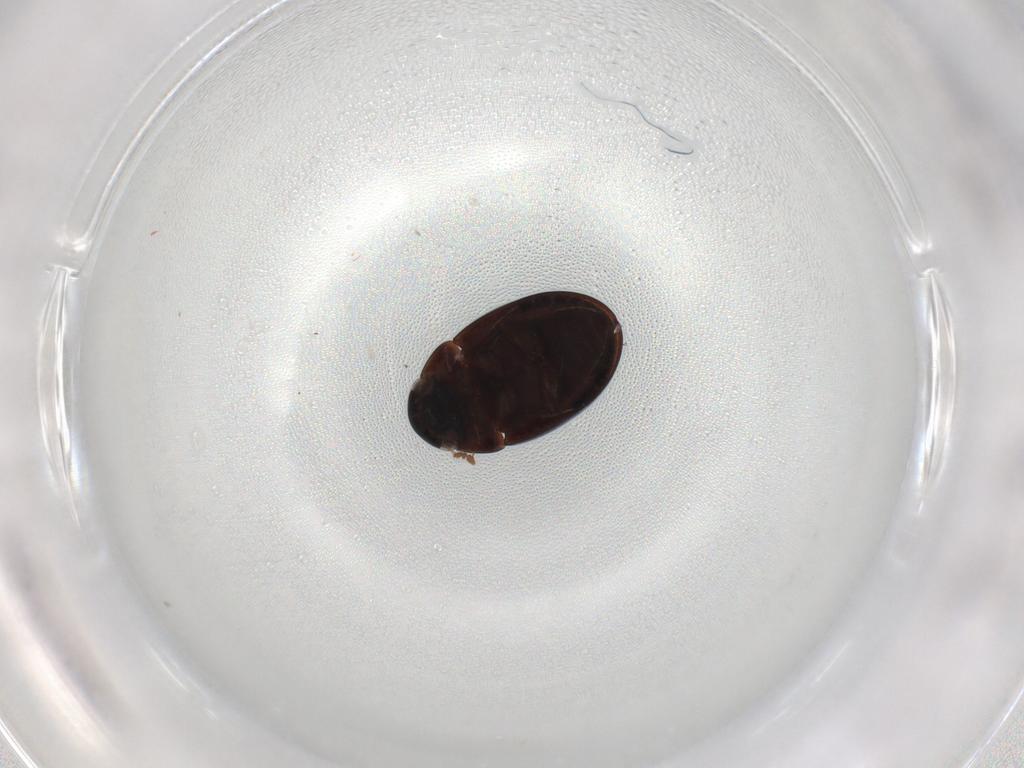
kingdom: Animalia
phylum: Arthropoda
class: Insecta
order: Coleoptera
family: Hydrophilidae
